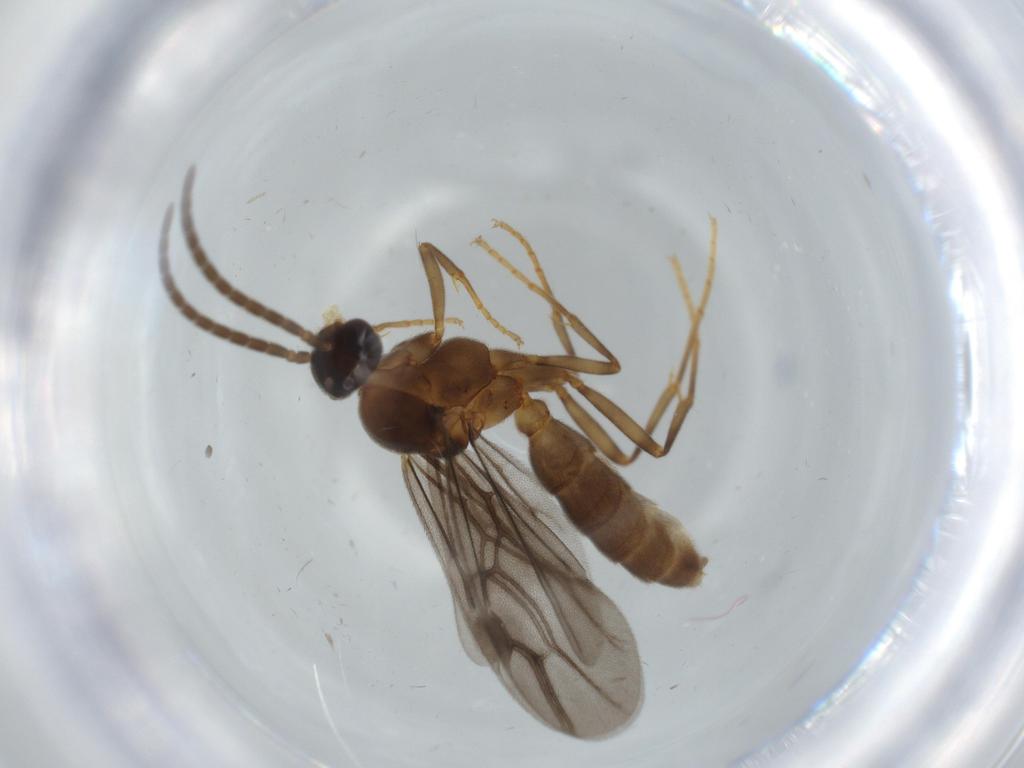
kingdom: Animalia
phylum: Arthropoda
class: Insecta
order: Hymenoptera
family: Formicidae
